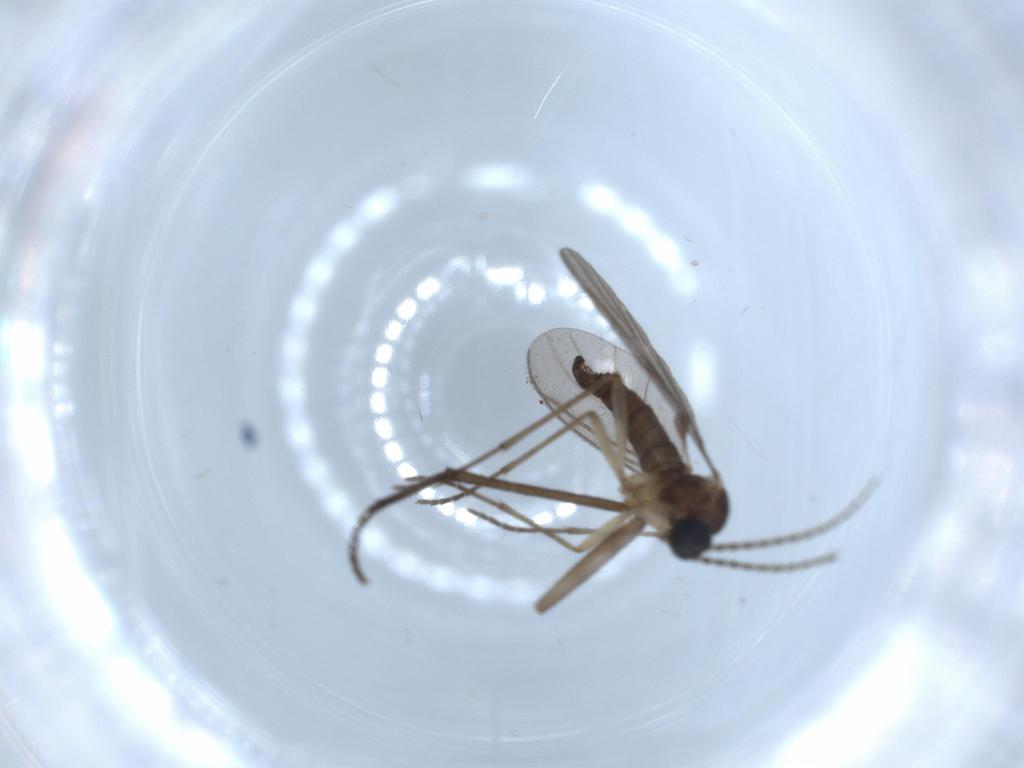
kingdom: Animalia
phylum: Arthropoda
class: Insecta
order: Diptera
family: Sciaridae
